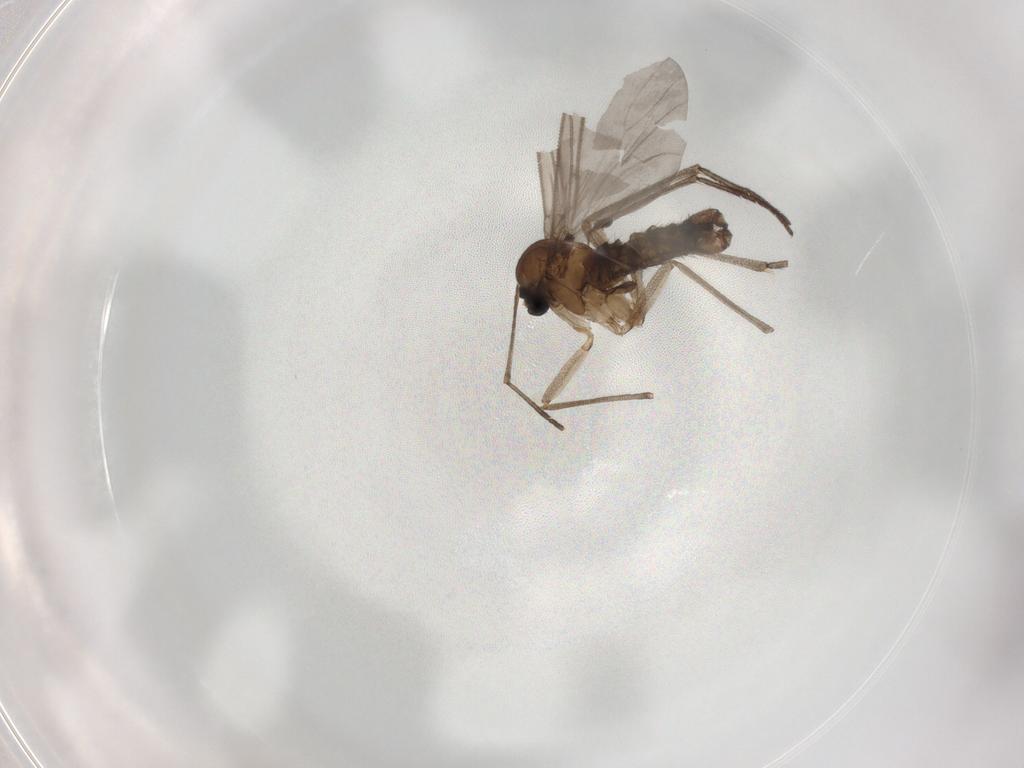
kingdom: Animalia
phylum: Arthropoda
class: Insecta
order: Diptera
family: Sciaridae
